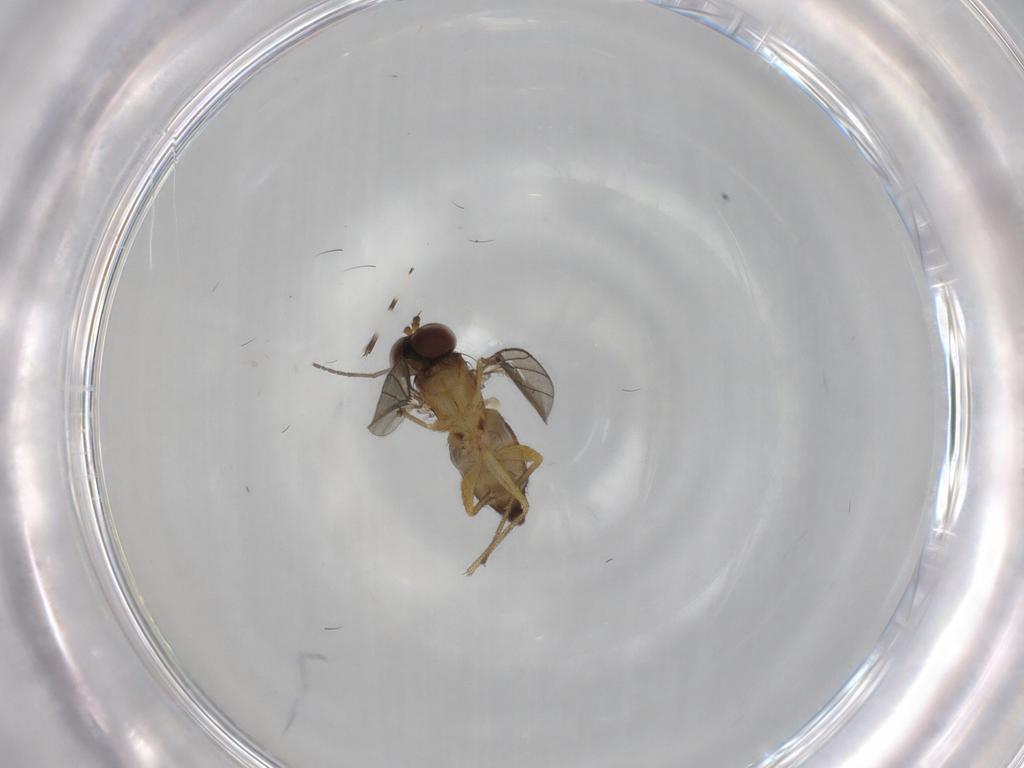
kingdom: Animalia
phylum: Arthropoda
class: Insecta
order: Diptera
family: Dolichopodidae
